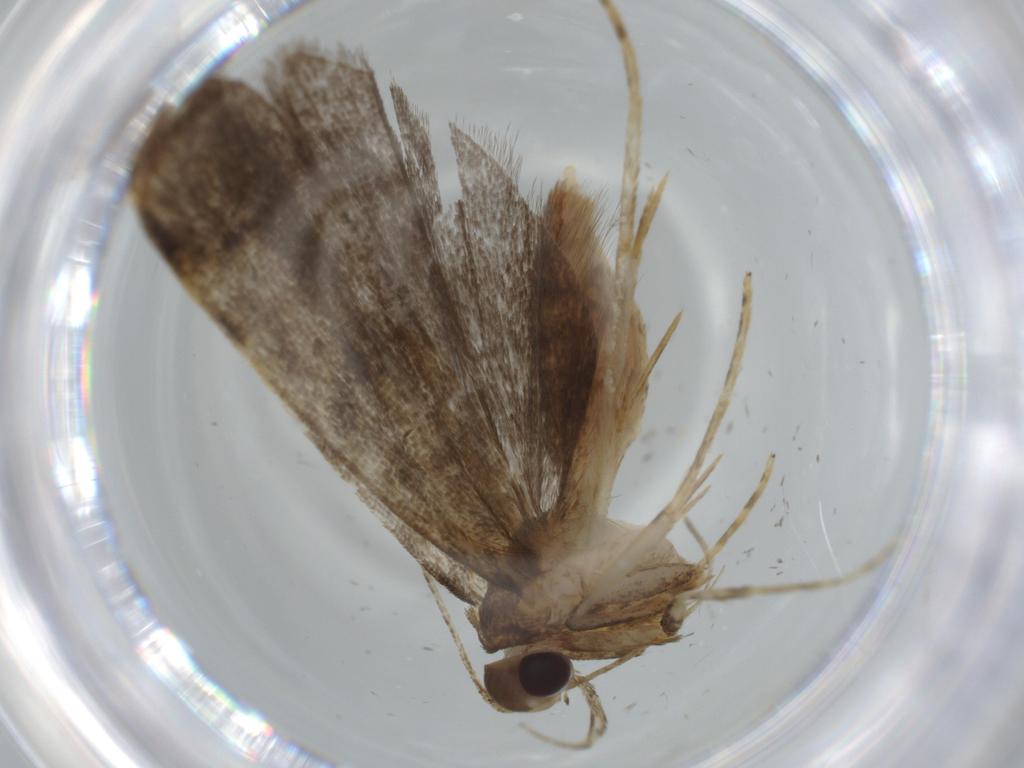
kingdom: Animalia
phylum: Arthropoda
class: Insecta
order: Lepidoptera
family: Autostichidae
